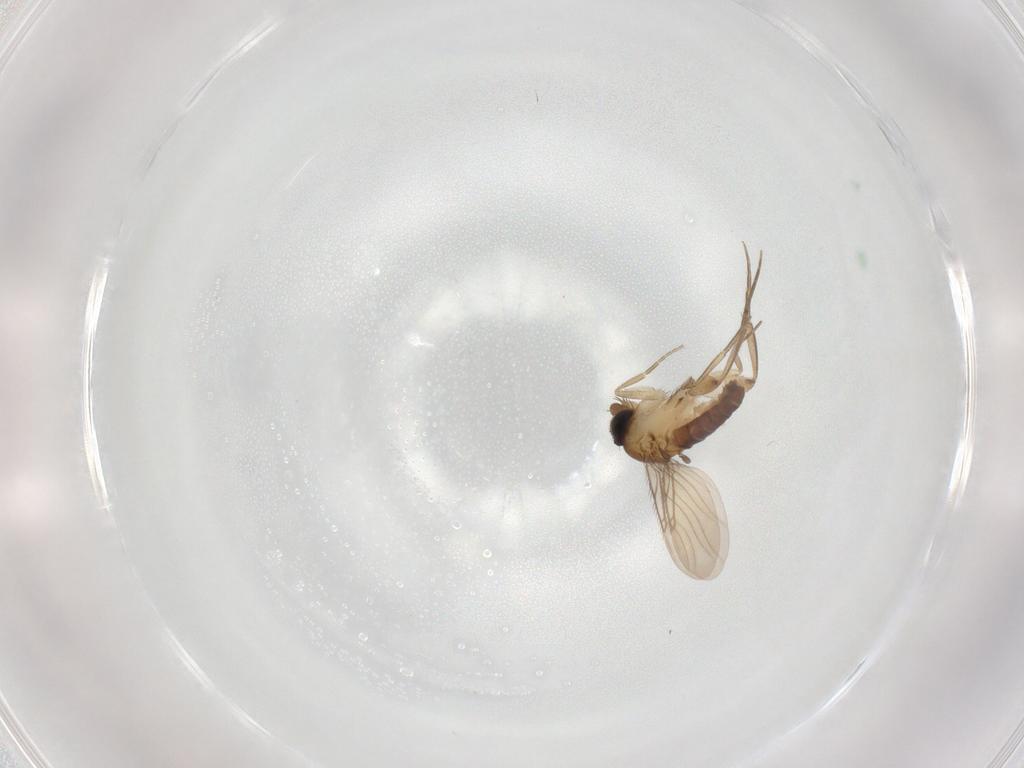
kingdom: Animalia
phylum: Arthropoda
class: Insecta
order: Diptera
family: Phoridae
